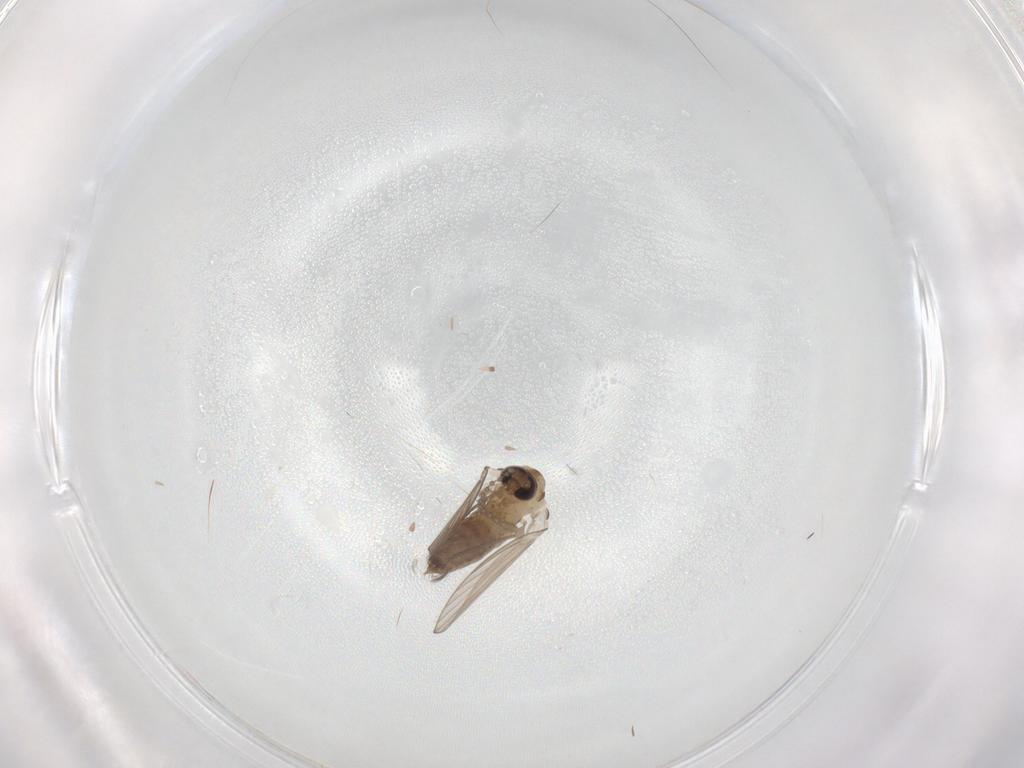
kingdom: Animalia
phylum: Arthropoda
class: Insecta
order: Diptera
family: Psychodidae
